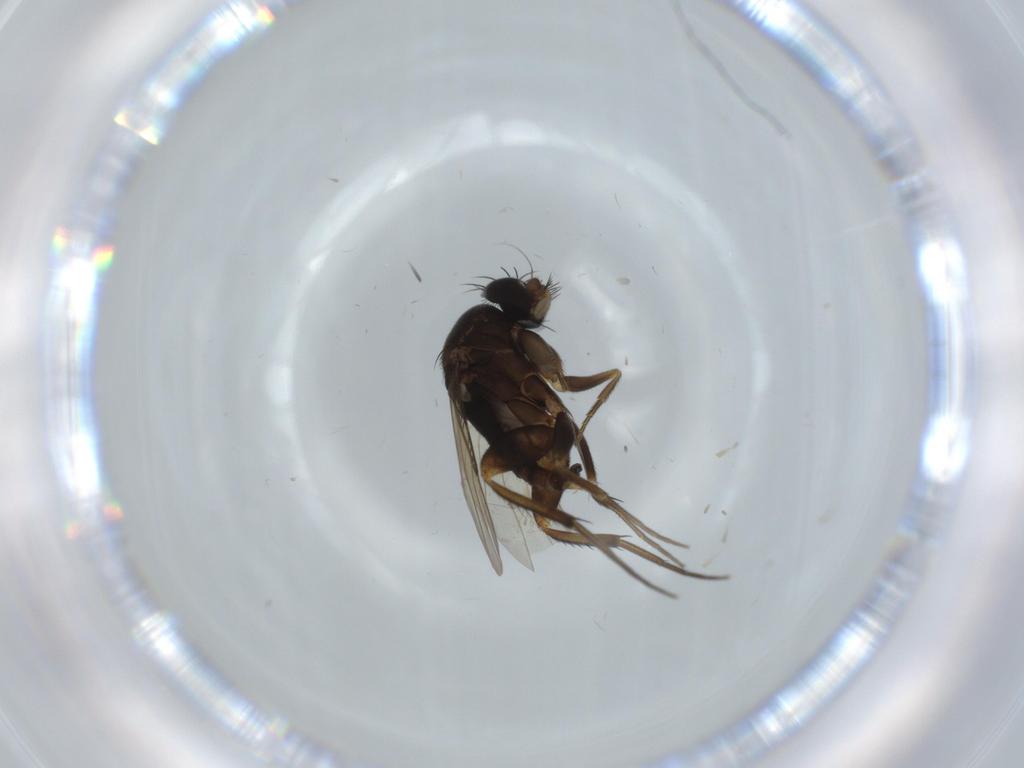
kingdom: Animalia
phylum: Arthropoda
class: Insecta
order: Diptera
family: Phoridae
